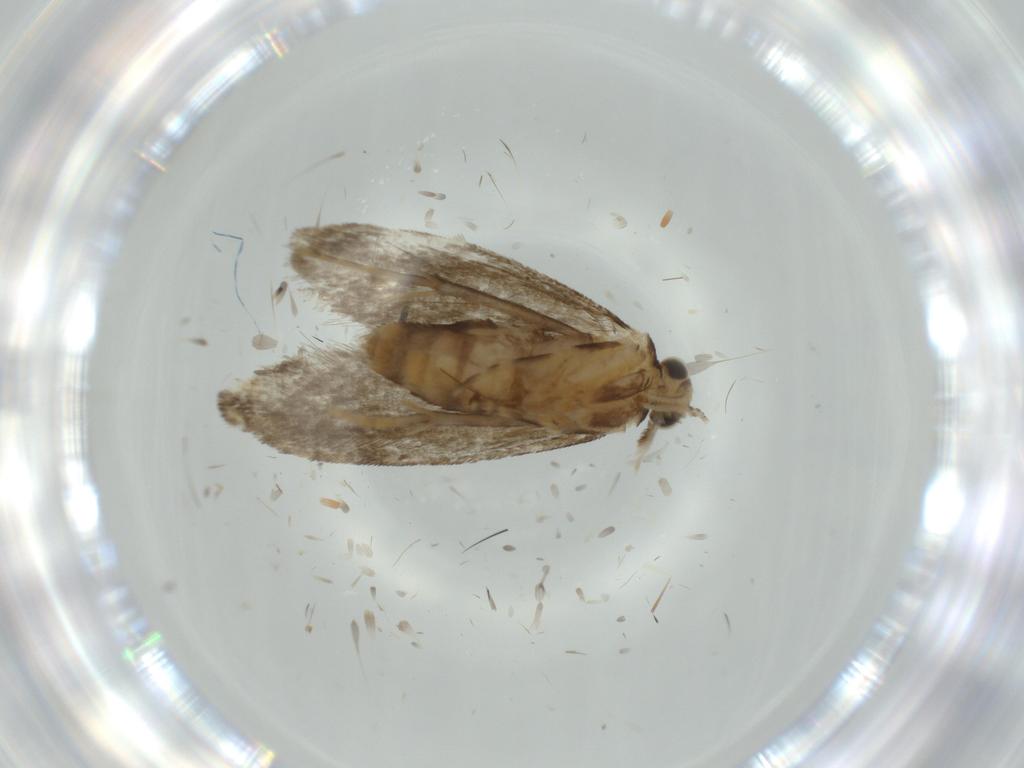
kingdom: Animalia
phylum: Arthropoda
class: Insecta
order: Lepidoptera
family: Tineidae
